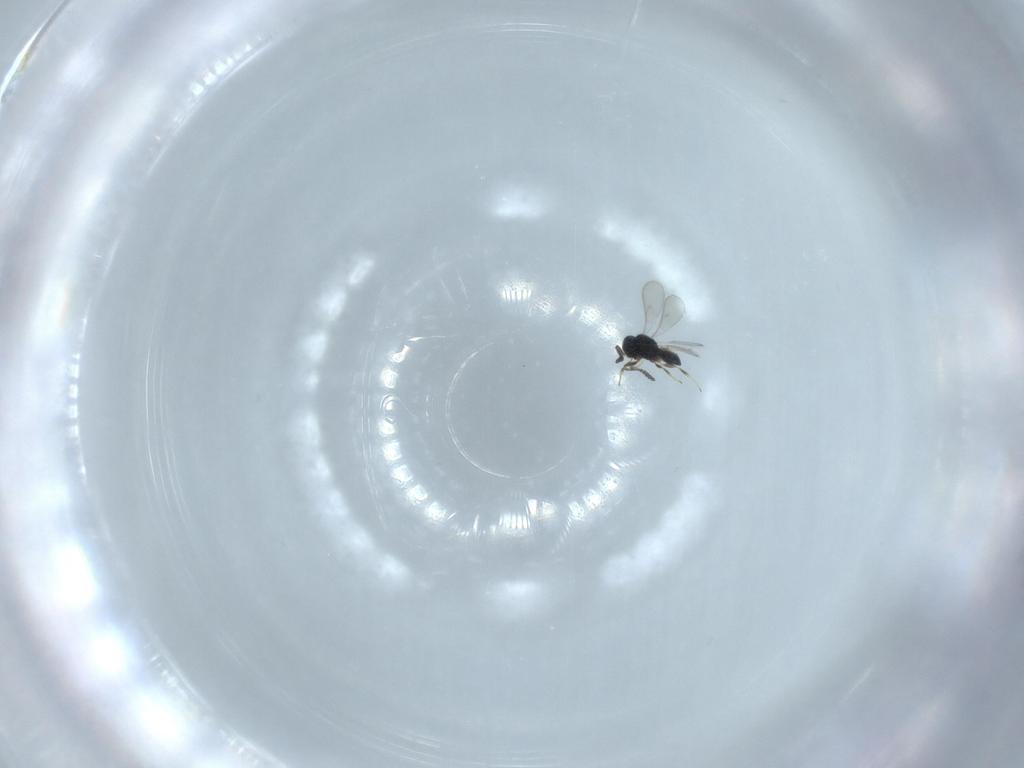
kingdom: Animalia
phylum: Arthropoda
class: Insecta
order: Hymenoptera
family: Scelionidae
